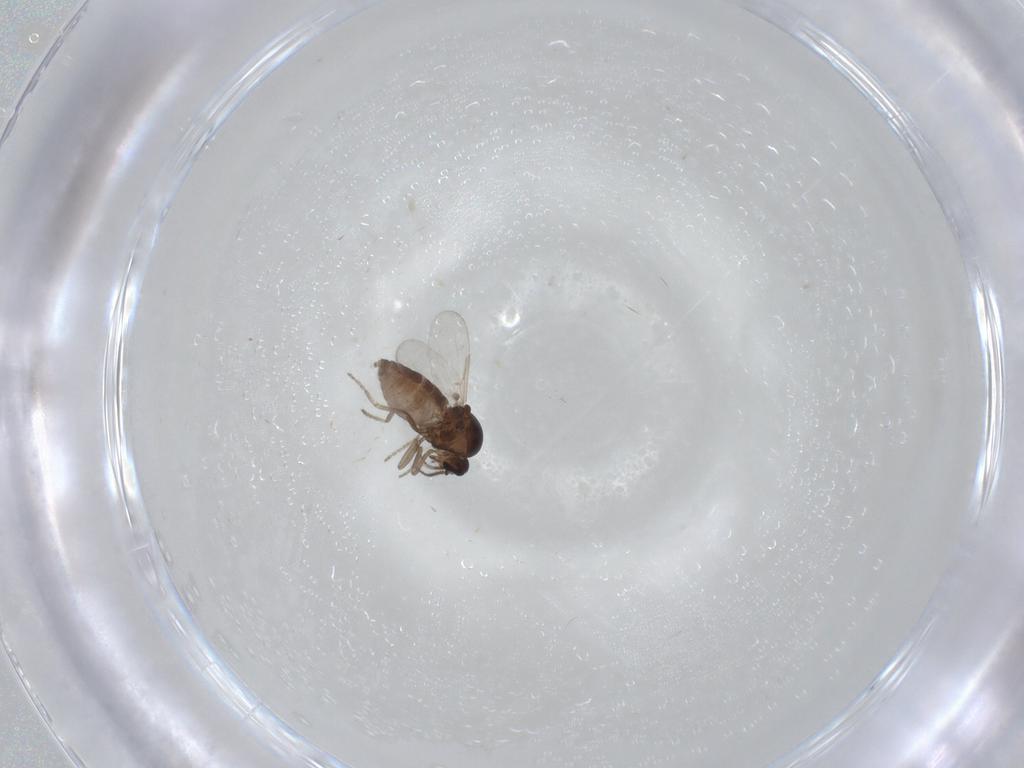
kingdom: Animalia
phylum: Arthropoda
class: Insecta
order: Diptera
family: Ceratopogonidae
